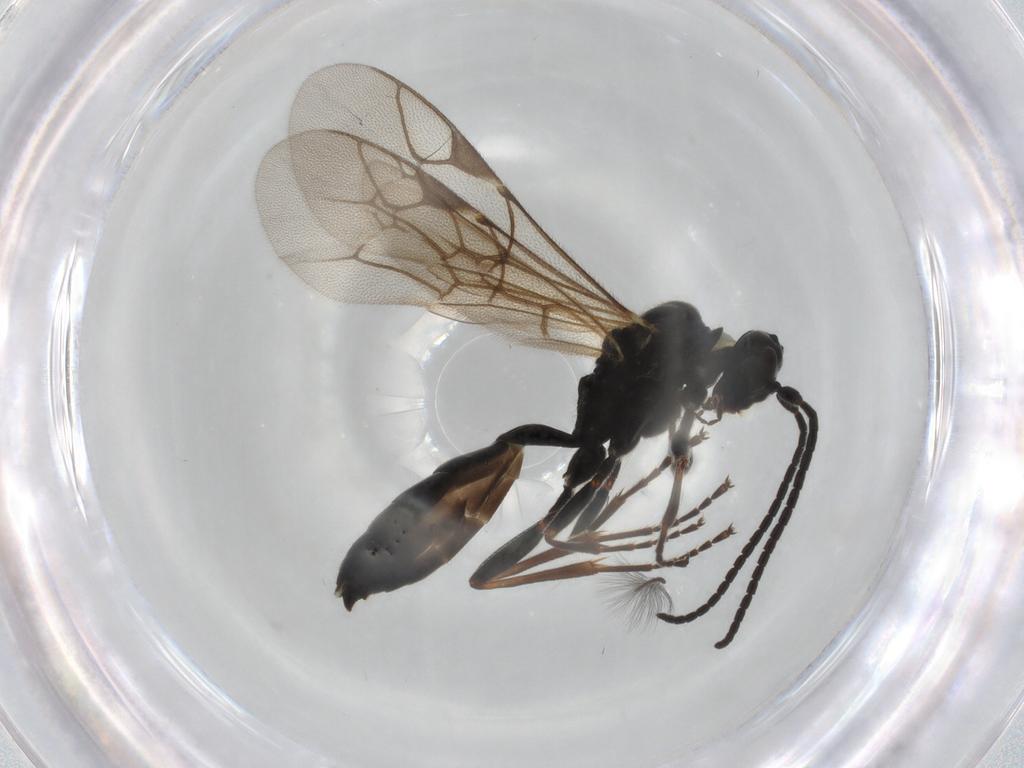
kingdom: Animalia
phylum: Arthropoda
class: Insecta
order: Hymenoptera
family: Ichneumonidae
